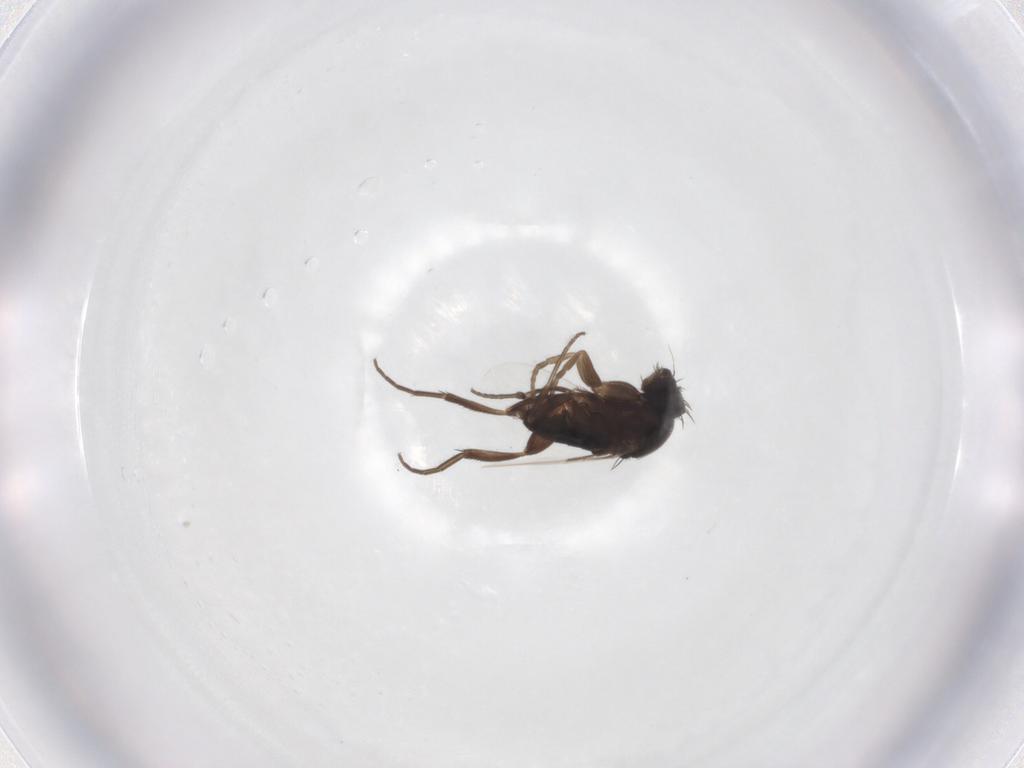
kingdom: Animalia
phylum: Arthropoda
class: Insecta
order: Diptera
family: Phoridae
